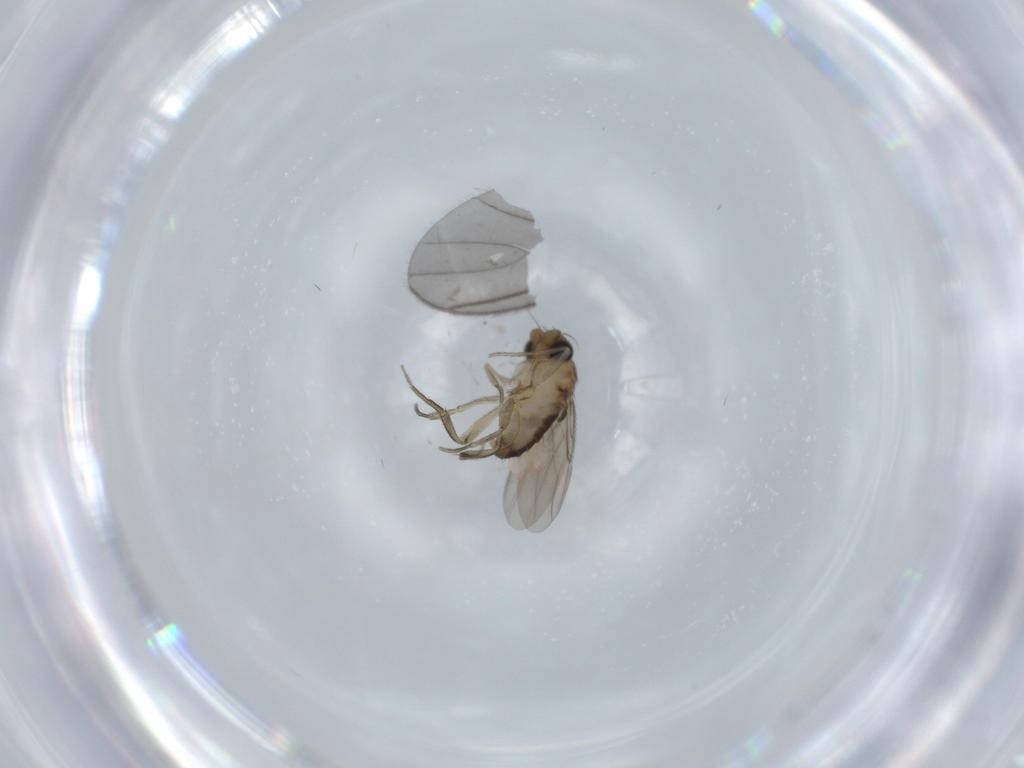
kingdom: Animalia
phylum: Arthropoda
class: Insecta
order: Diptera
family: Phoridae
